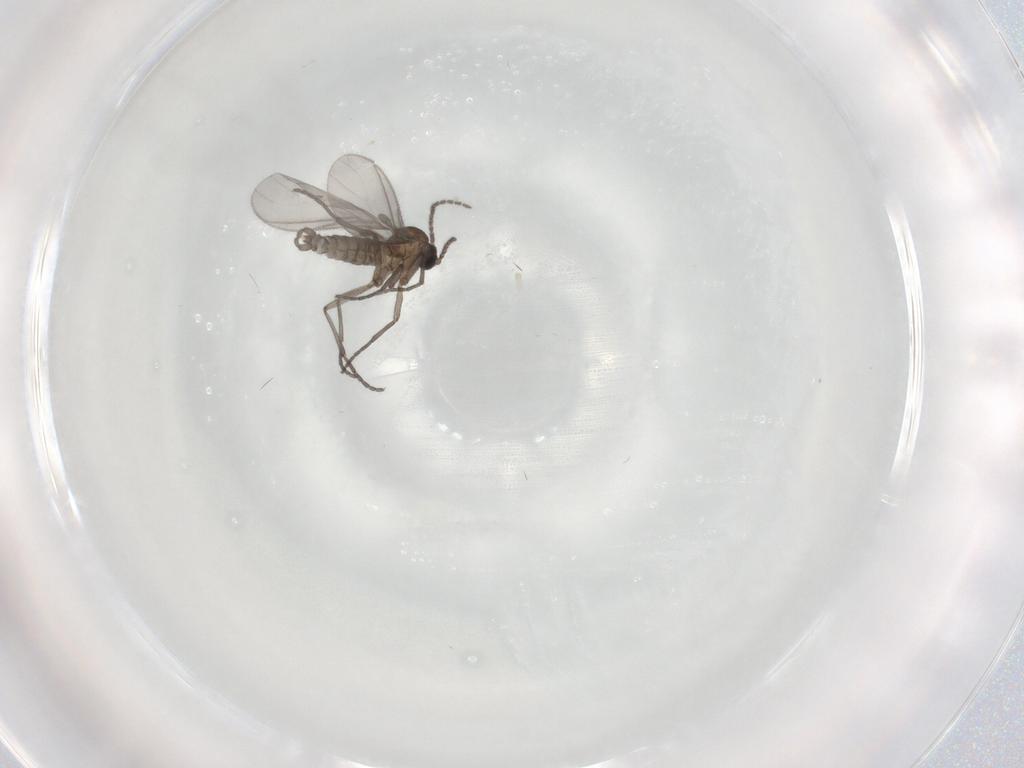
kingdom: Animalia
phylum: Arthropoda
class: Insecta
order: Diptera
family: Sciaridae
